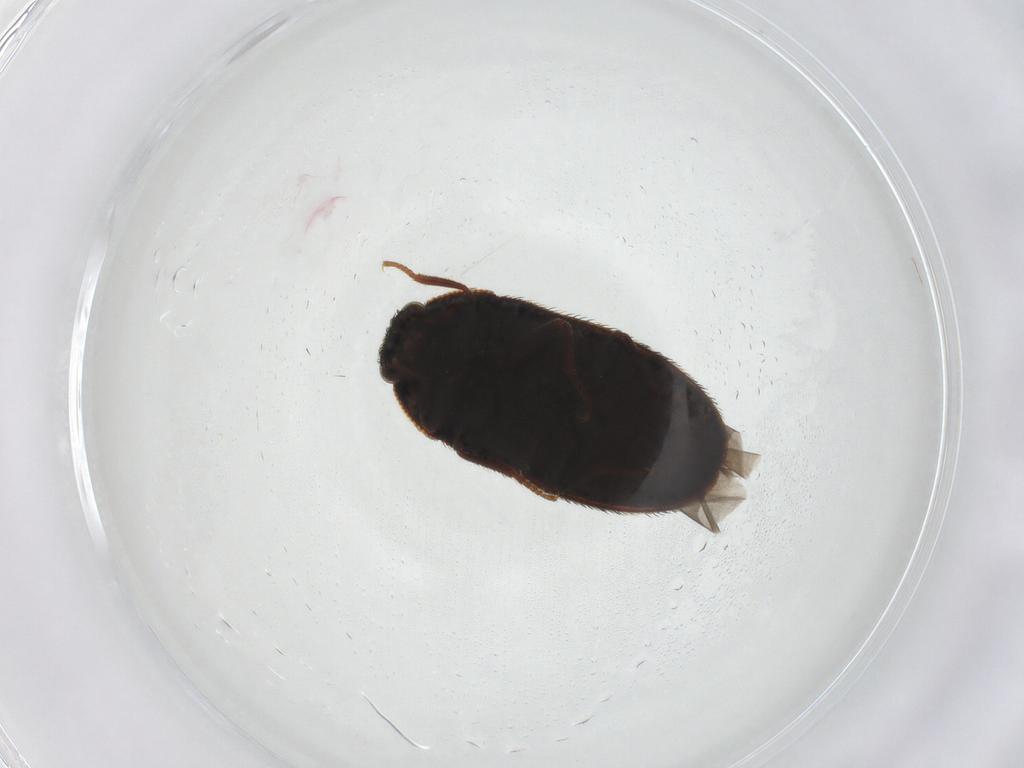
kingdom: Animalia
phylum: Arthropoda
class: Insecta
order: Coleoptera
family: Dermestidae
